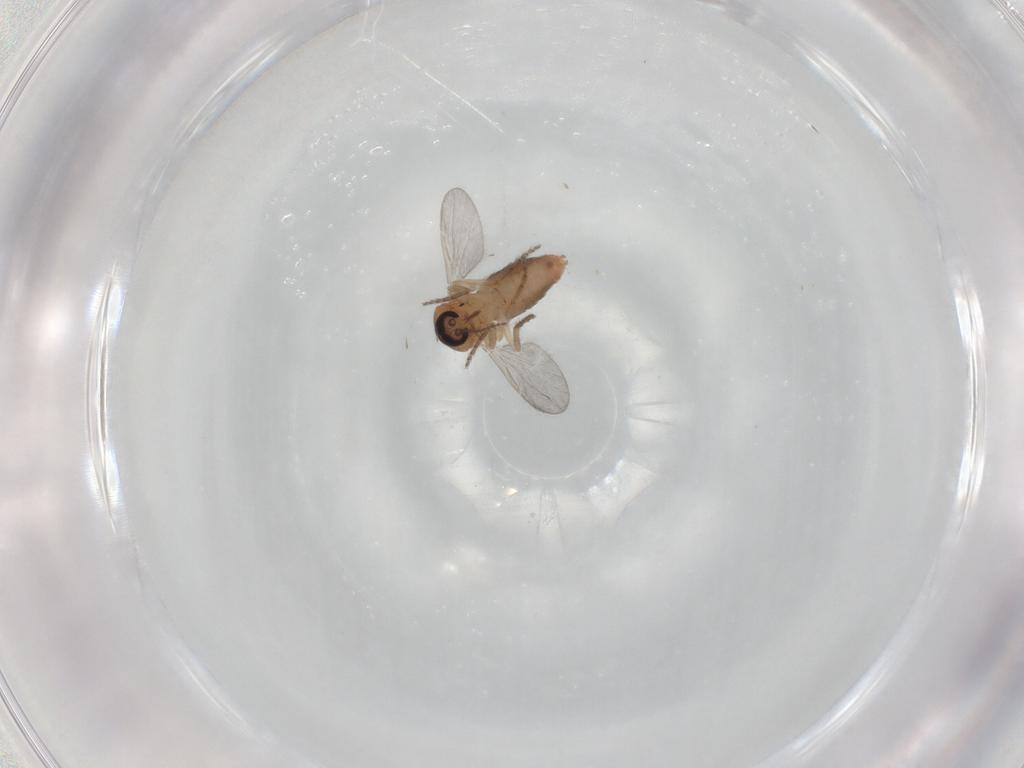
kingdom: Animalia
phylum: Arthropoda
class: Insecta
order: Diptera
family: Ceratopogonidae
